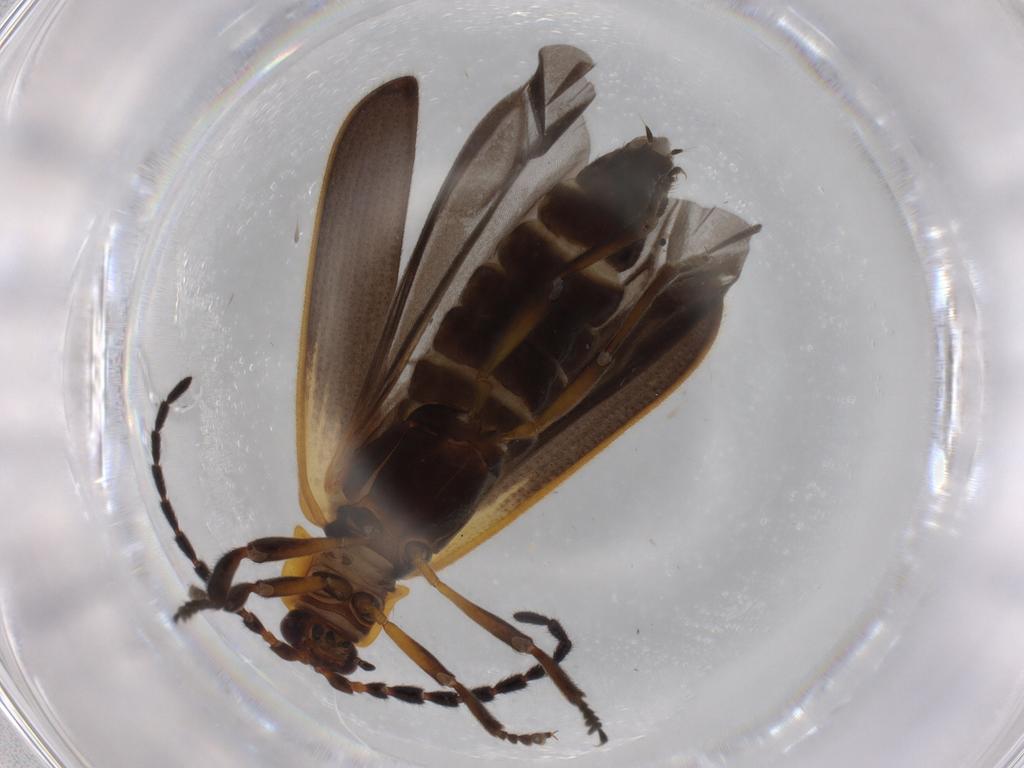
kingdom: Animalia
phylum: Arthropoda
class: Insecta
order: Coleoptera
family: Lycidae
